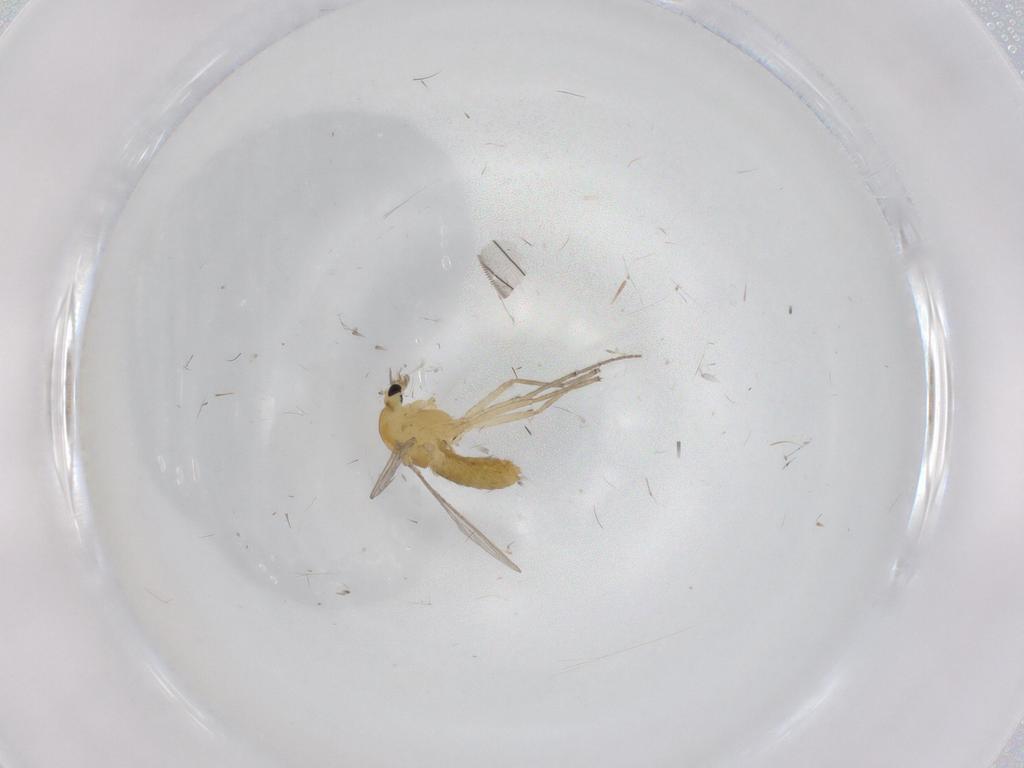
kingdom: Animalia
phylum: Arthropoda
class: Insecta
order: Diptera
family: Chironomidae
